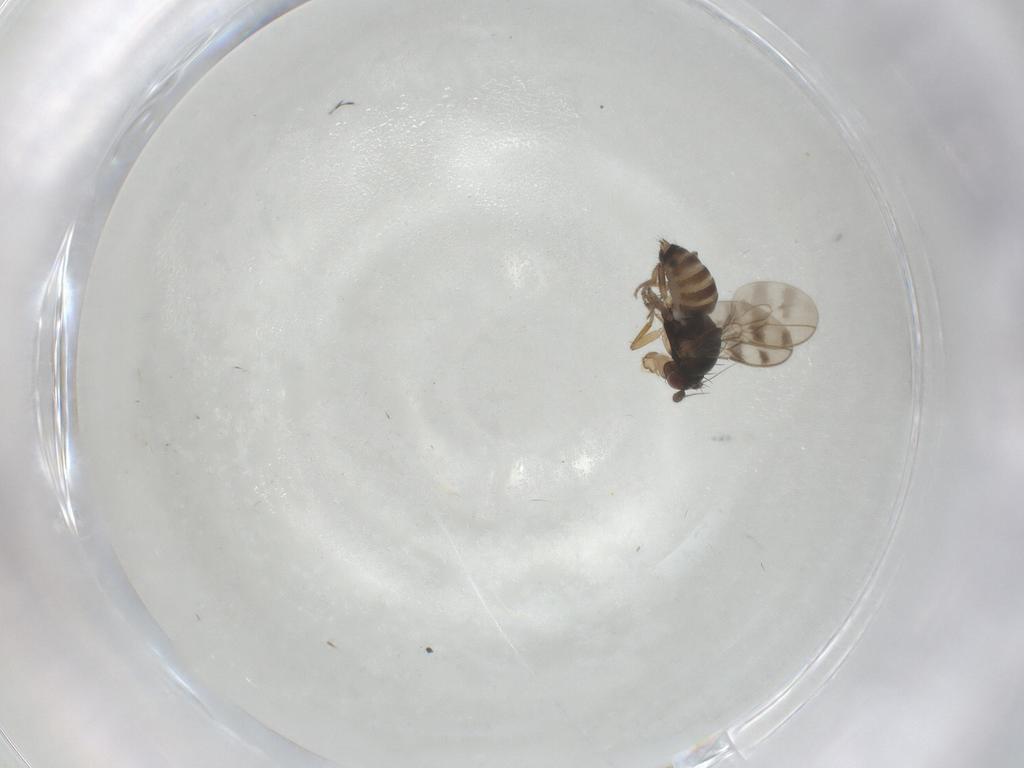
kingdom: Animalia
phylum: Arthropoda
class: Insecta
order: Diptera
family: Sphaeroceridae
